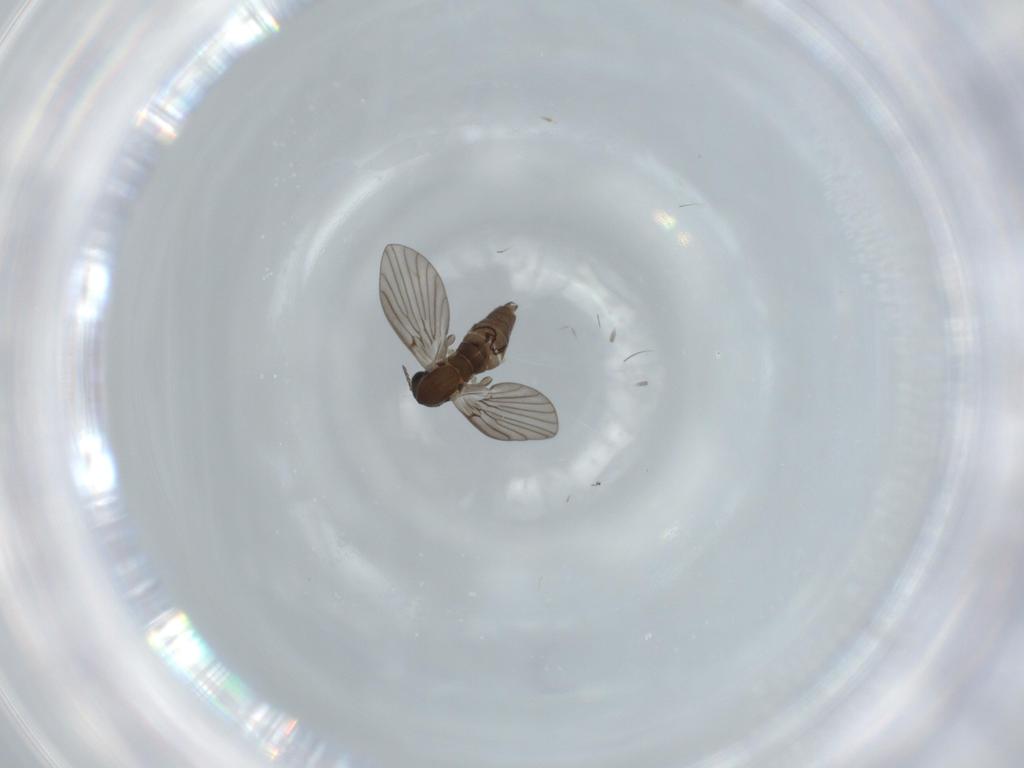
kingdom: Animalia
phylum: Arthropoda
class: Insecta
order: Diptera
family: Psychodidae
